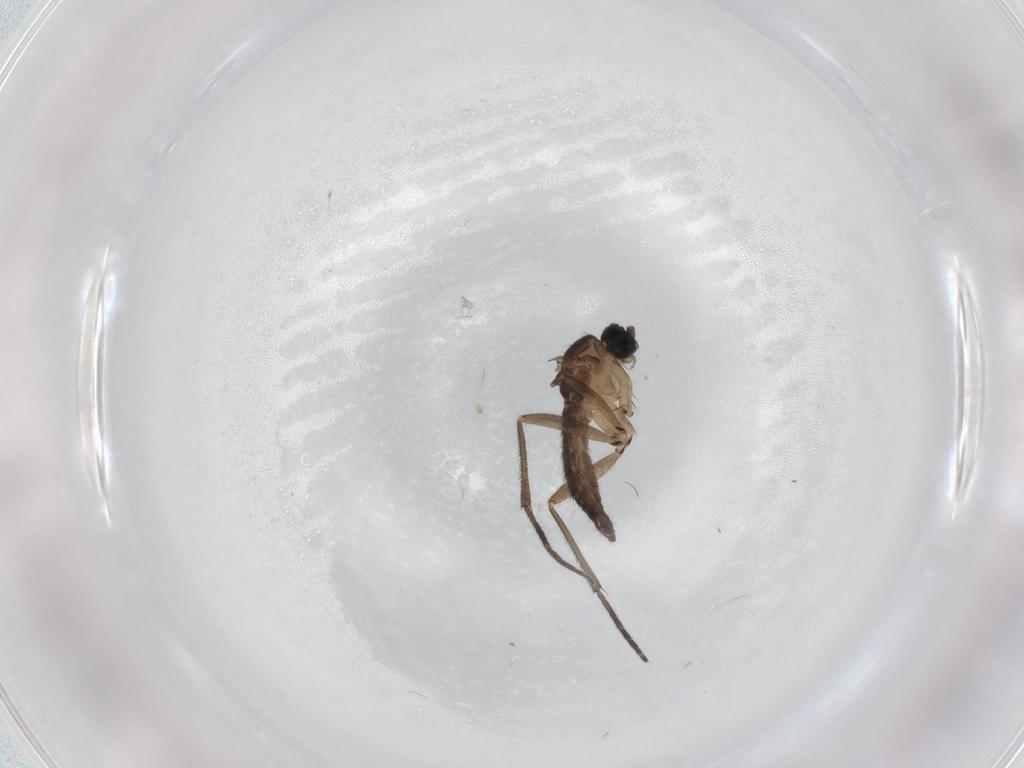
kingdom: Animalia
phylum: Arthropoda
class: Insecta
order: Diptera
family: Sciaridae
